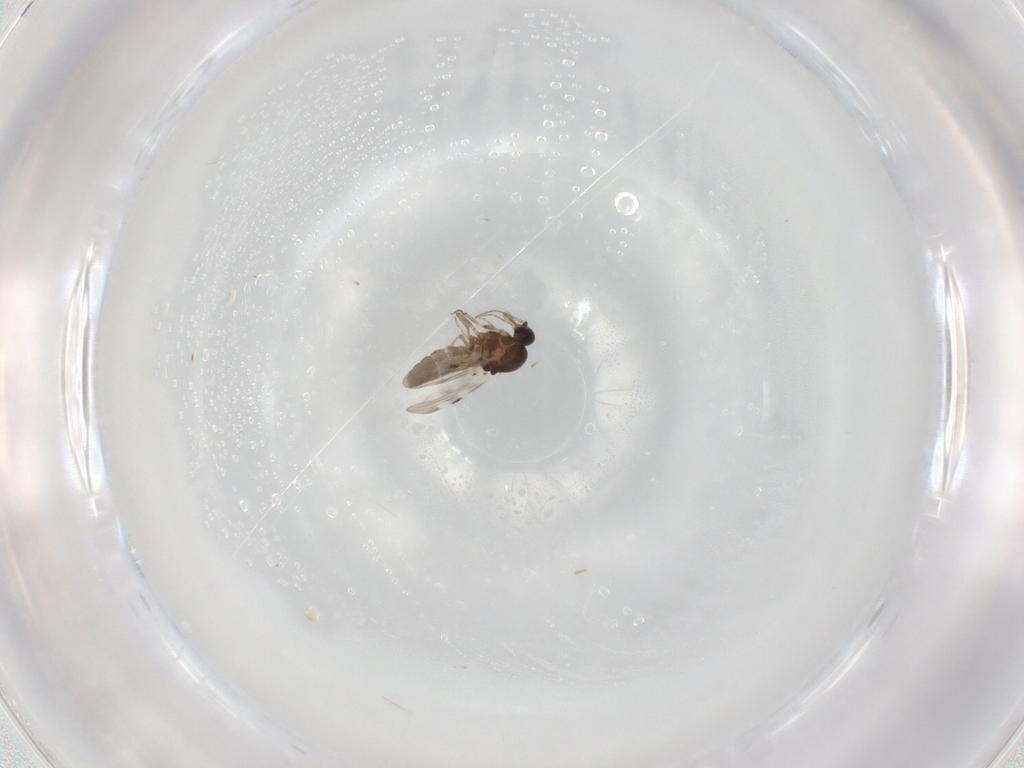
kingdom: Animalia
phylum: Arthropoda
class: Insecta
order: Diptera
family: Ceratopogonidae
